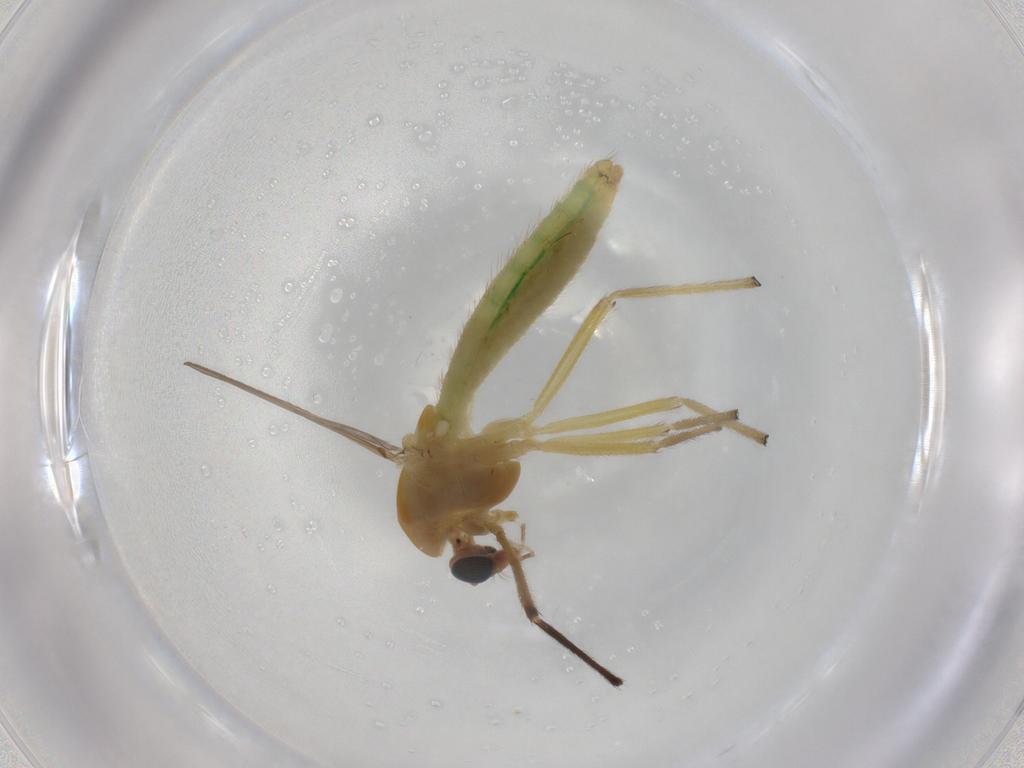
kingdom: Animalia
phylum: Arthropoda
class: Insecta
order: Diptera
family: Chironomidae
